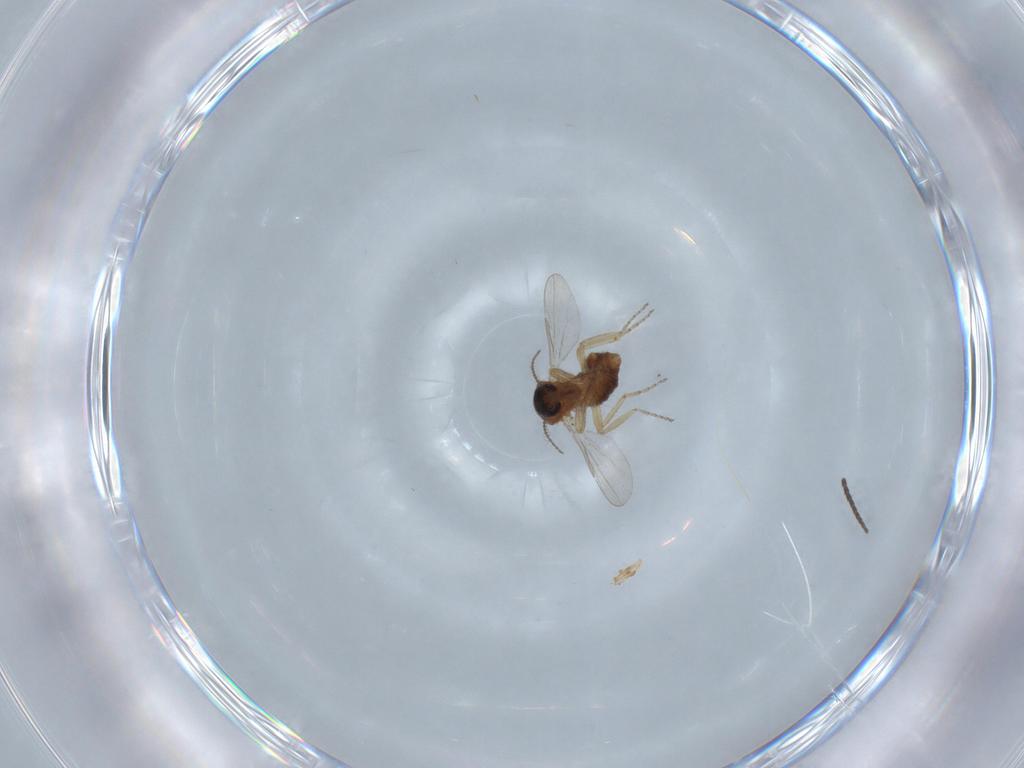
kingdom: Animalia
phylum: Arthropoda
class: Insecta
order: Diptera
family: Sciaridae
